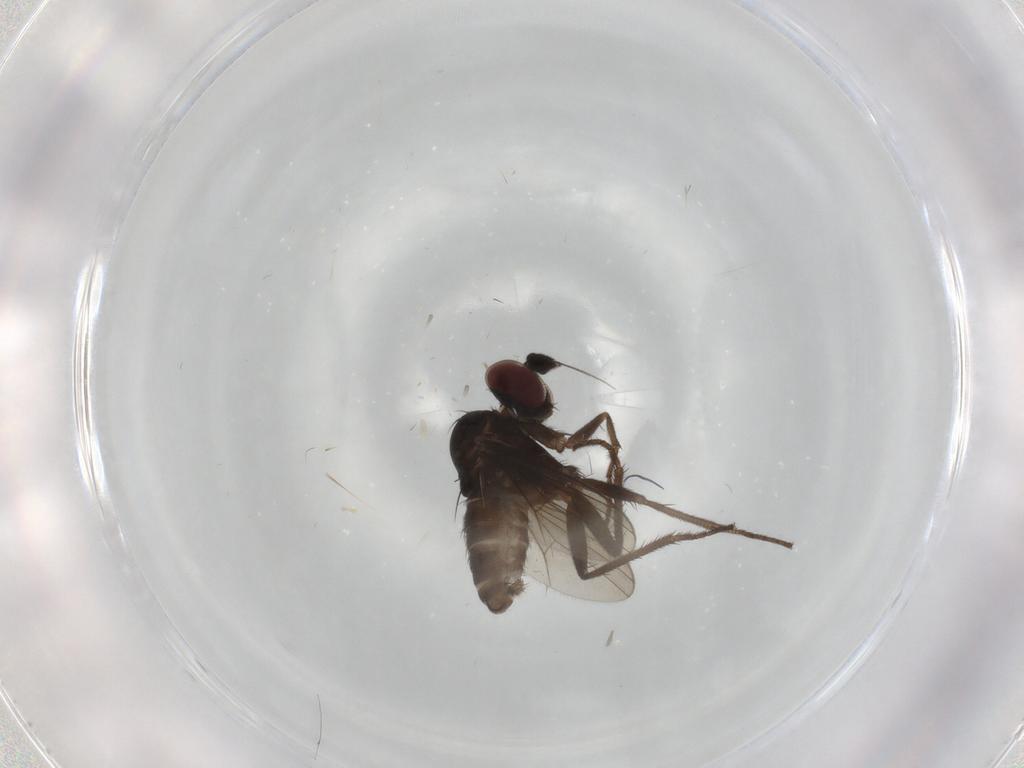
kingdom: Animalia
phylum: Arthropoda
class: Insecta
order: Diptera
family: Dolichopodidae
